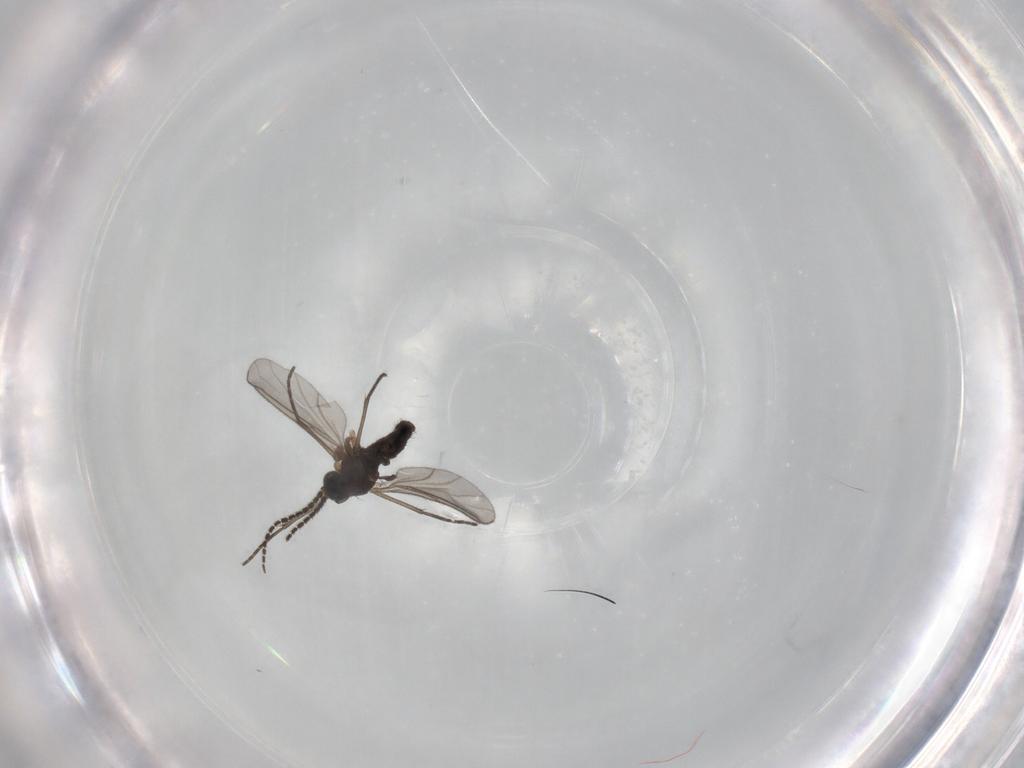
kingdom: Animalia
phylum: Arthropoda
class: Insecta
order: Diptera
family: Sciaridae
